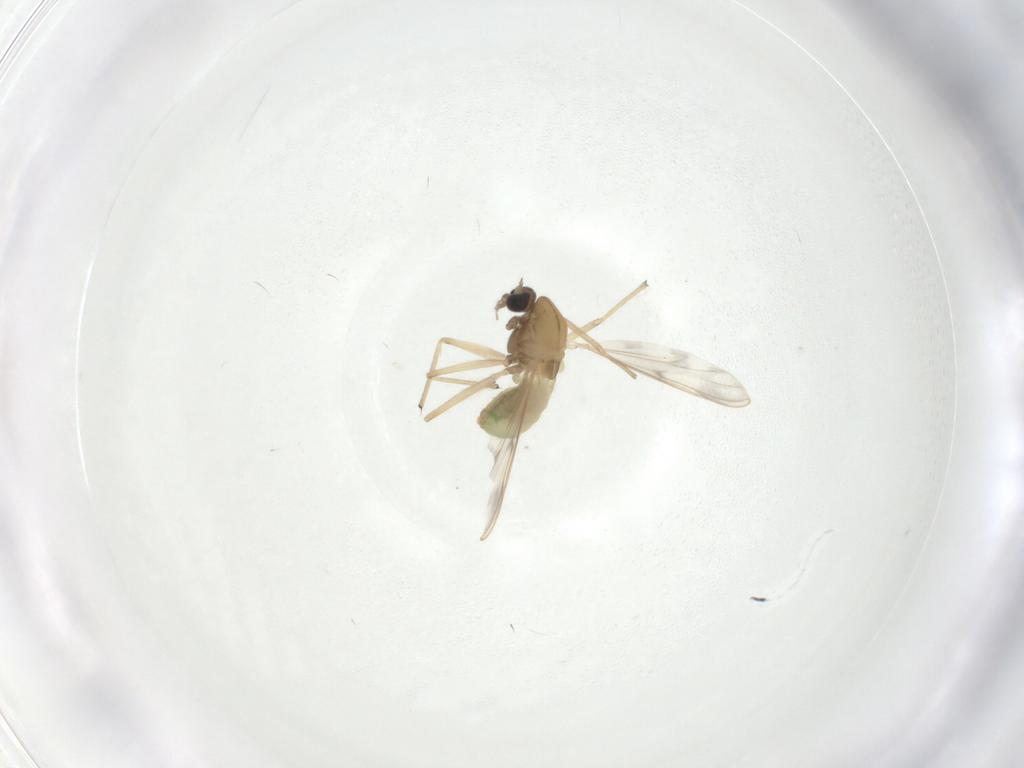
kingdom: Animalia
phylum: Arthropoda
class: Insecta
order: Diptera
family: Chironomidae
